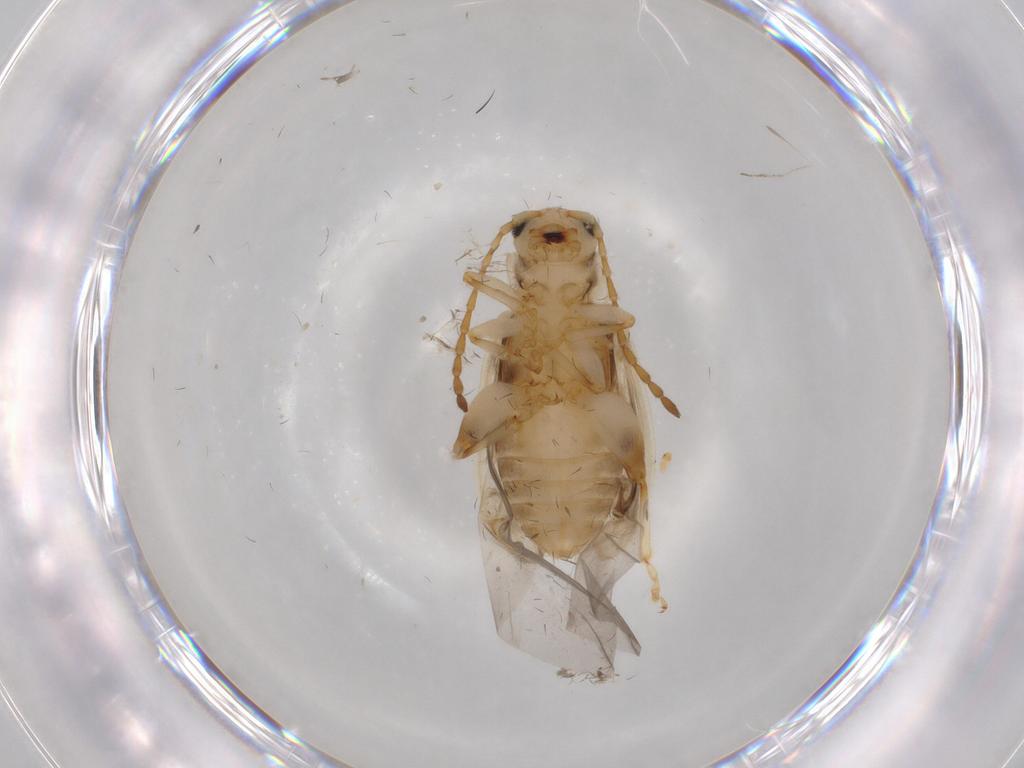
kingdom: Animalia
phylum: Arthropoda
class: Insecta
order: Coleoptera
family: Chrysomelidae
